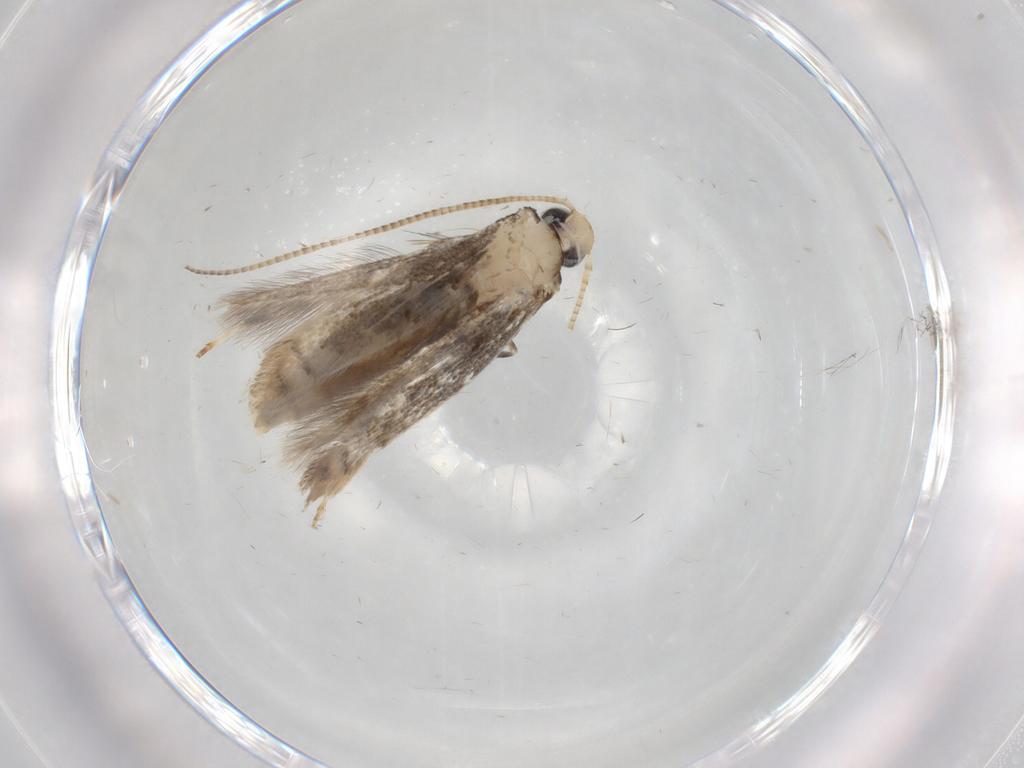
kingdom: Animalia
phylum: Arthropoda
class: Insecta
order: Lepidoptera
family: Gracillariidae
